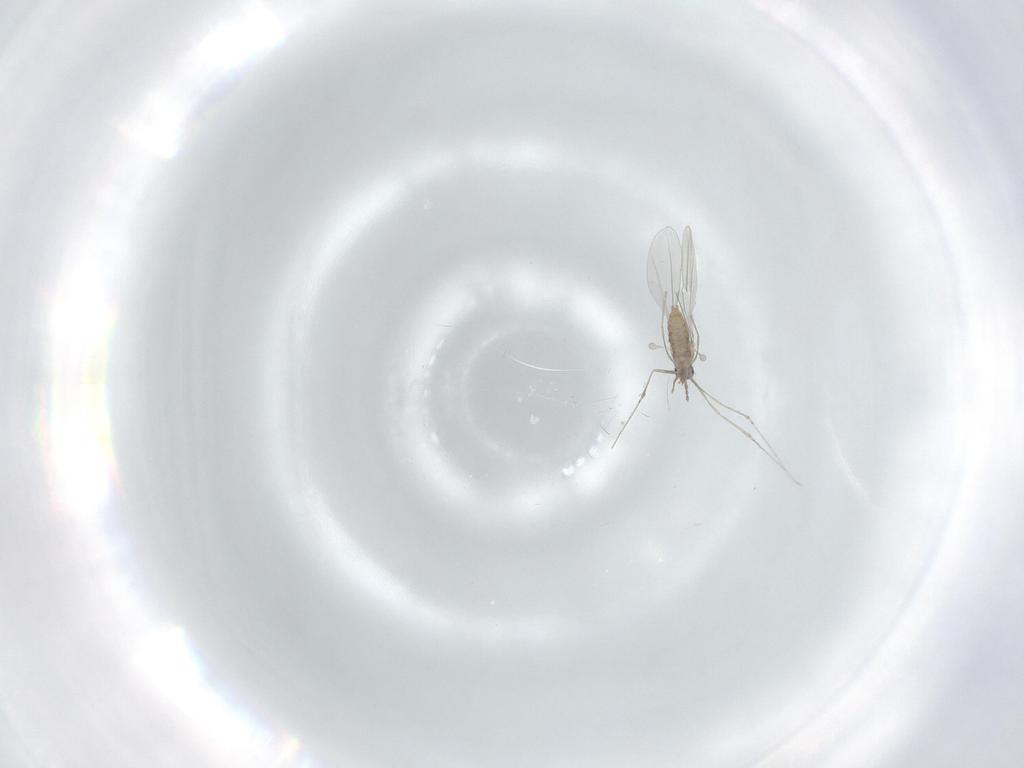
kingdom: Animalia
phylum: Arthropoda
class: Insecta
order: Diptera
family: Cecidomyiidae
